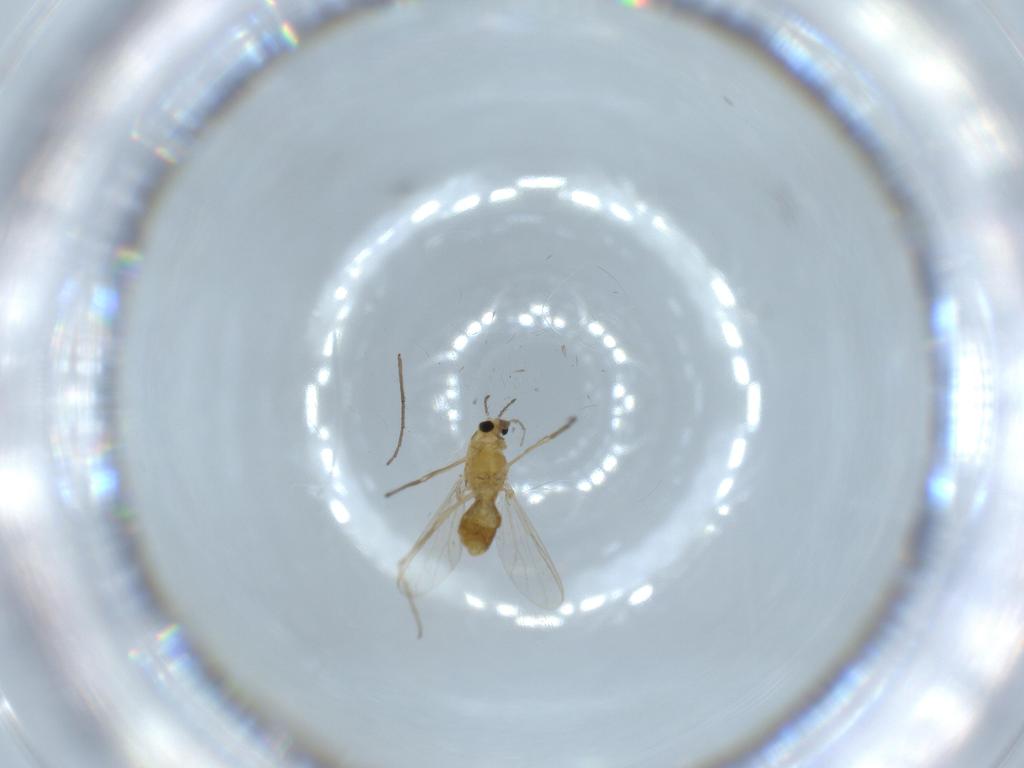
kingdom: Animalia
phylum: Arthropoda
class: Insecta
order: Diptera
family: Chironomidae
